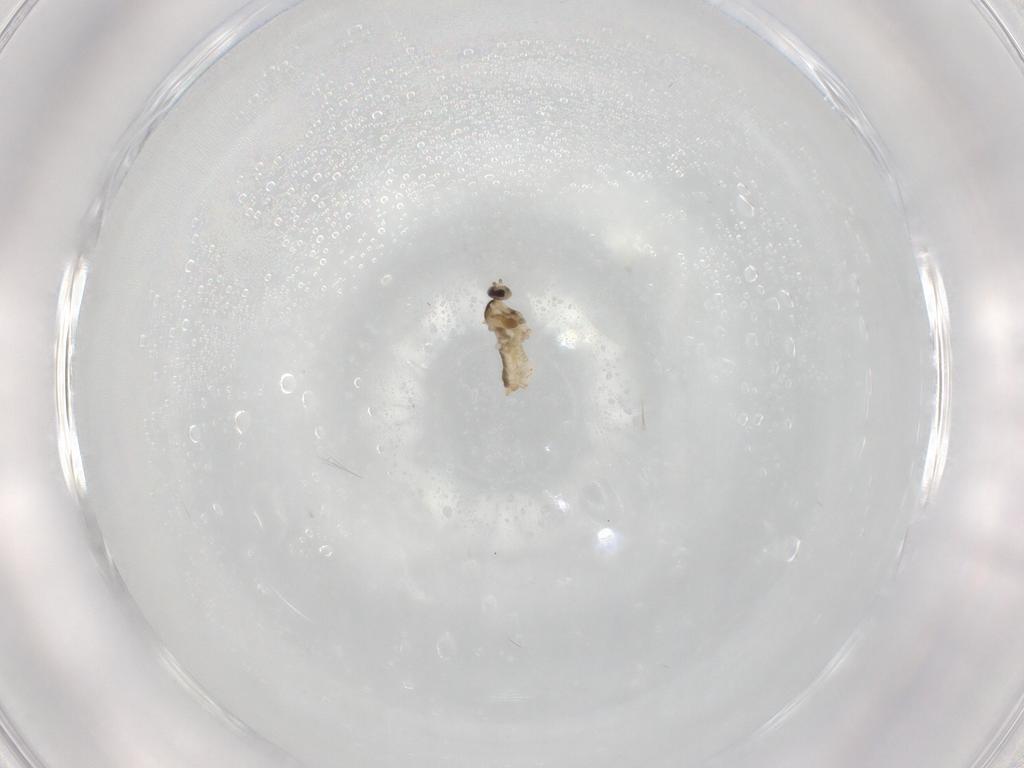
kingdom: Animalia
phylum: Arthropoda
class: Insecta
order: Diptera
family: Cecidomyiidae
